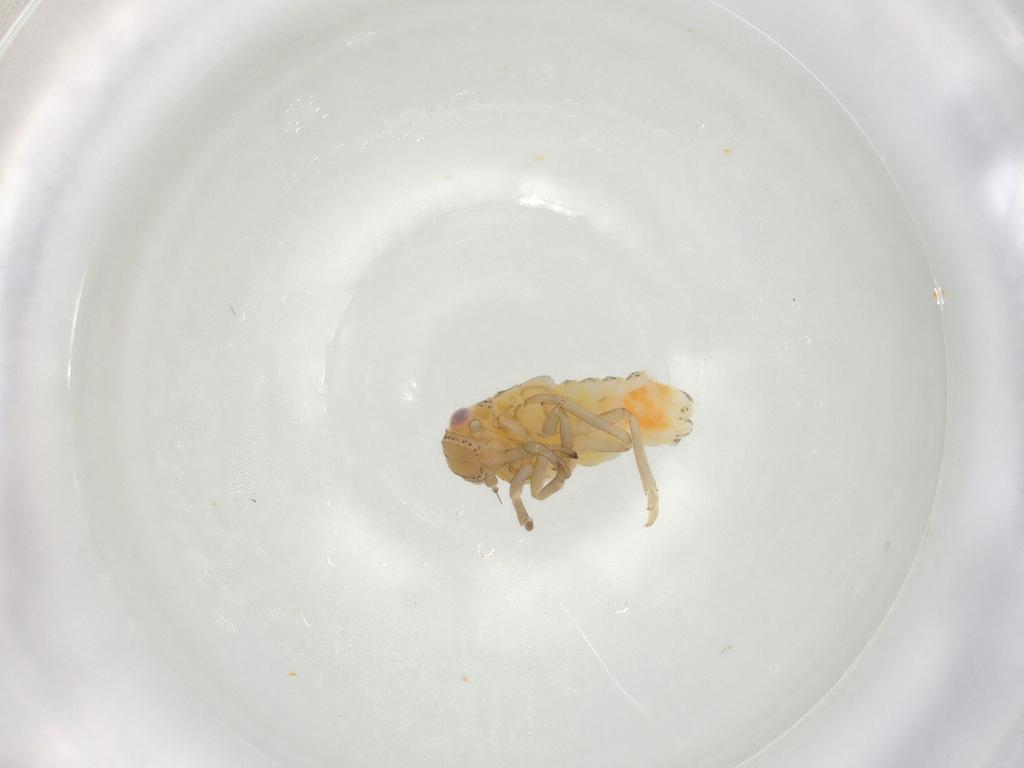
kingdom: Animalia
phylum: Arthropoda
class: Insecta
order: Hemiptera
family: Tropiduchidae
